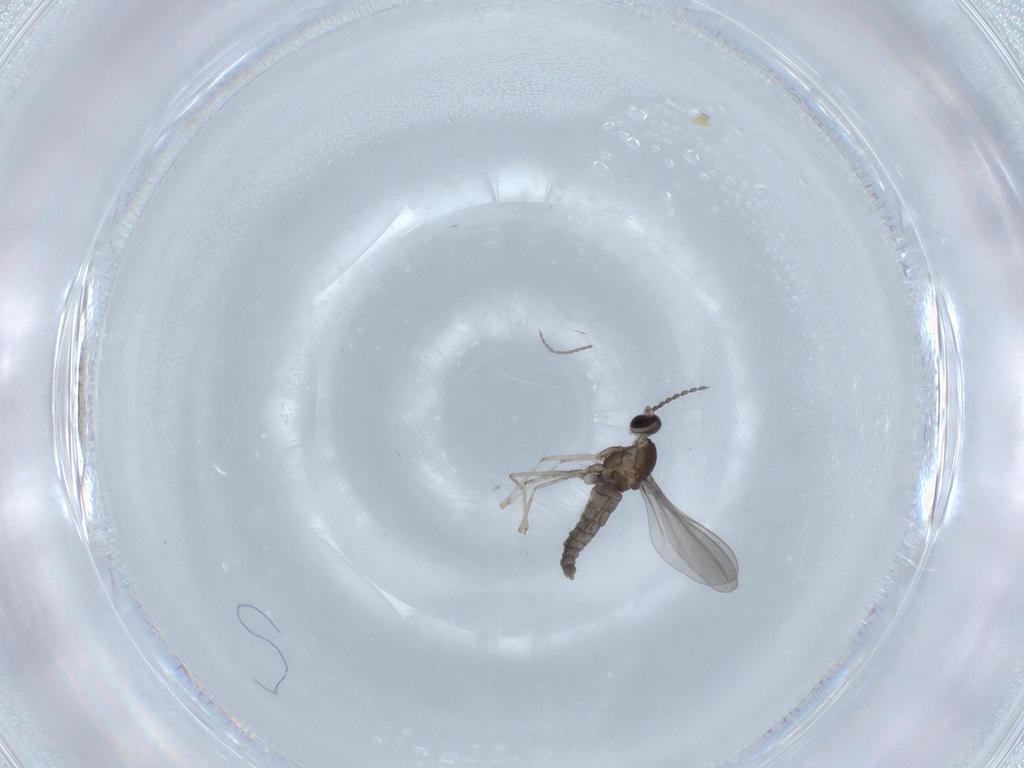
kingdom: Animalia
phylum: Arthropoda
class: Insecta
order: Diptera
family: Cecidomyiidae
